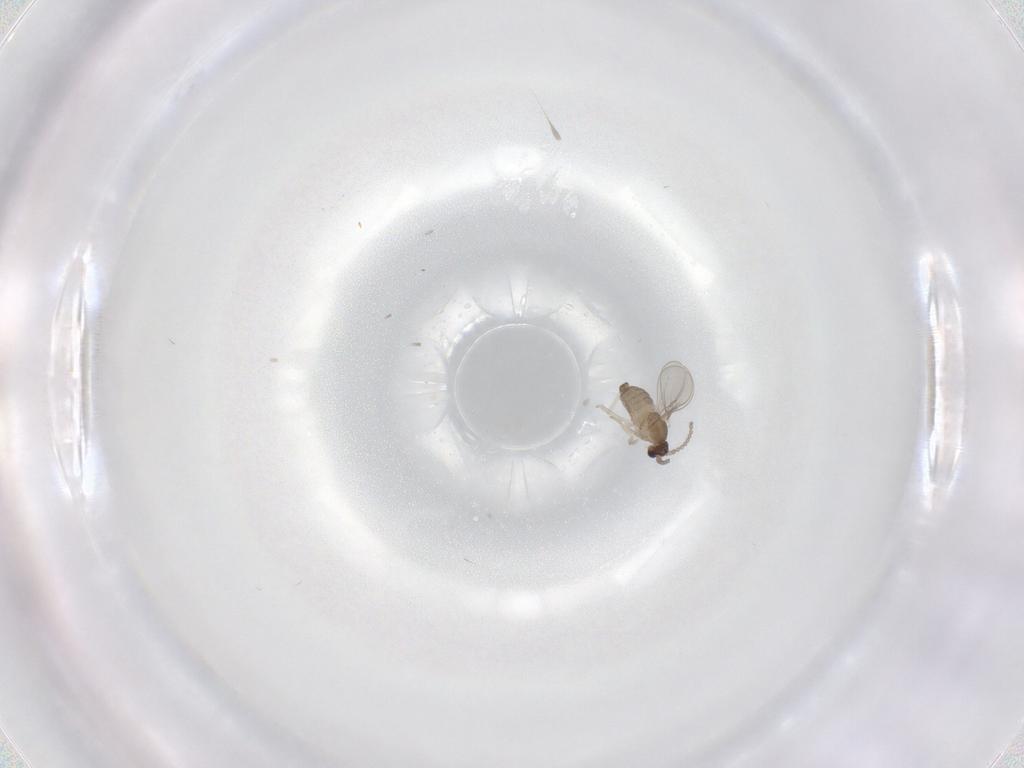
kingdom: Animalia
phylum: Arthropoda
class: Insecta
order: Diptera
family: Cecidomyiidae
